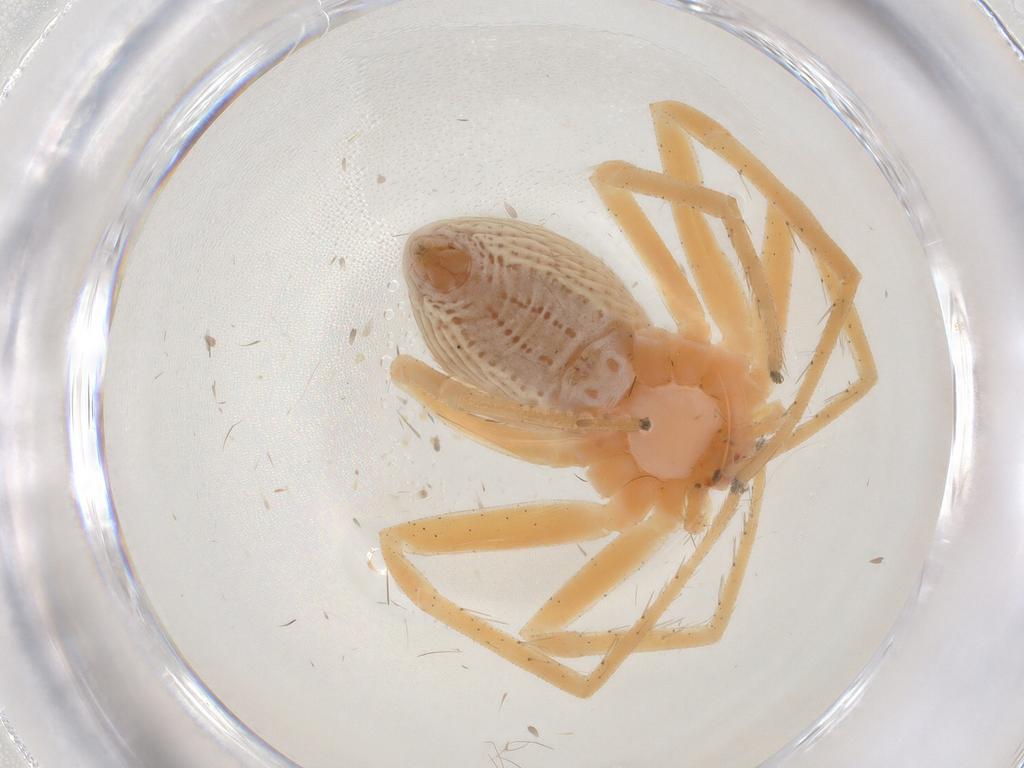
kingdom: Animalia
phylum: Arthropoda
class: Arachnida
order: Araneae
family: Philodromidae
